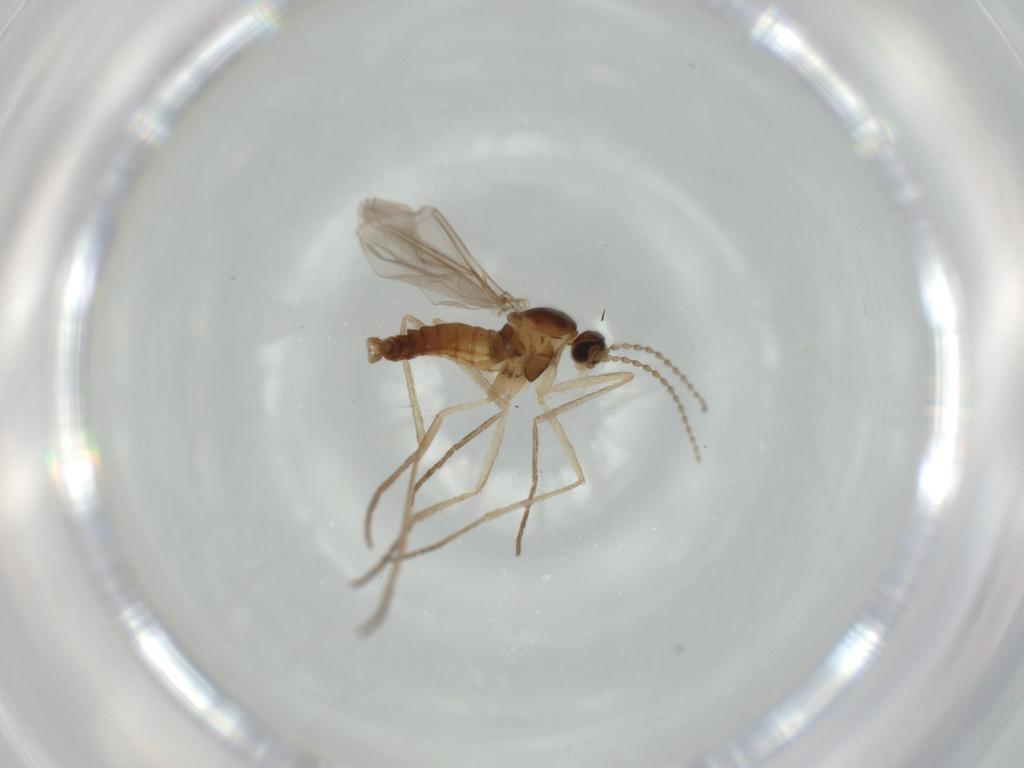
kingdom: Animalia
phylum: Arthropoda
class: Insecta
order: Diptera
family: Cecidomyiidae
